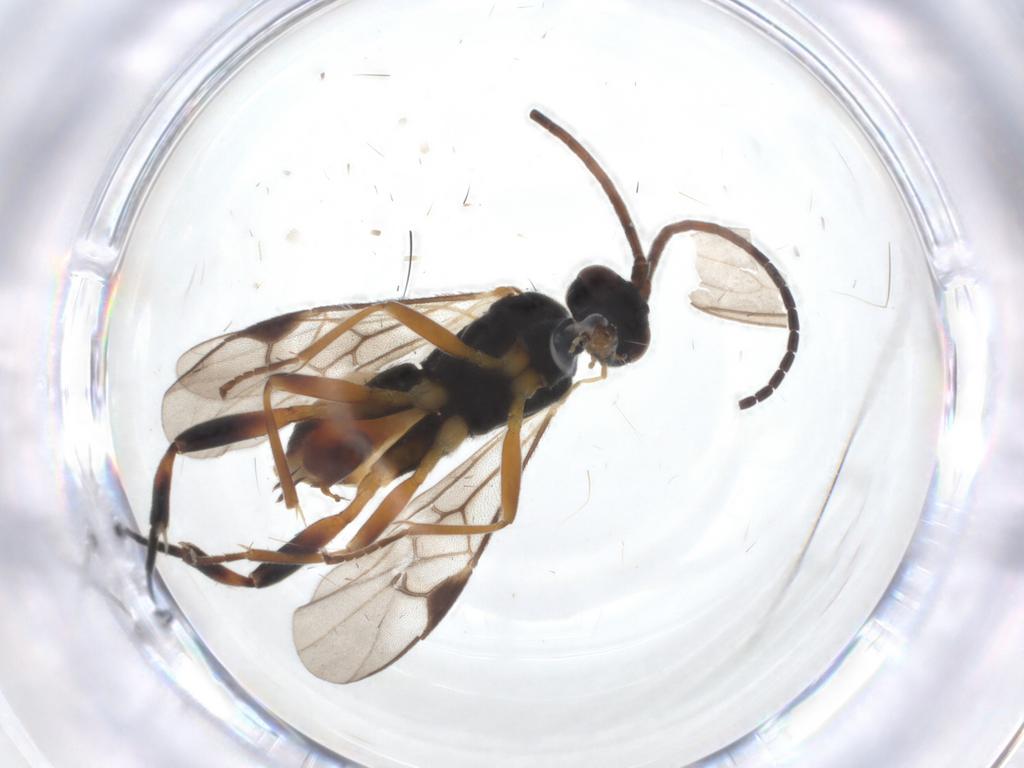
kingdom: Animalia
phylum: Arthropoda
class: Insecta
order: Hymenoptera
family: Braconidae
